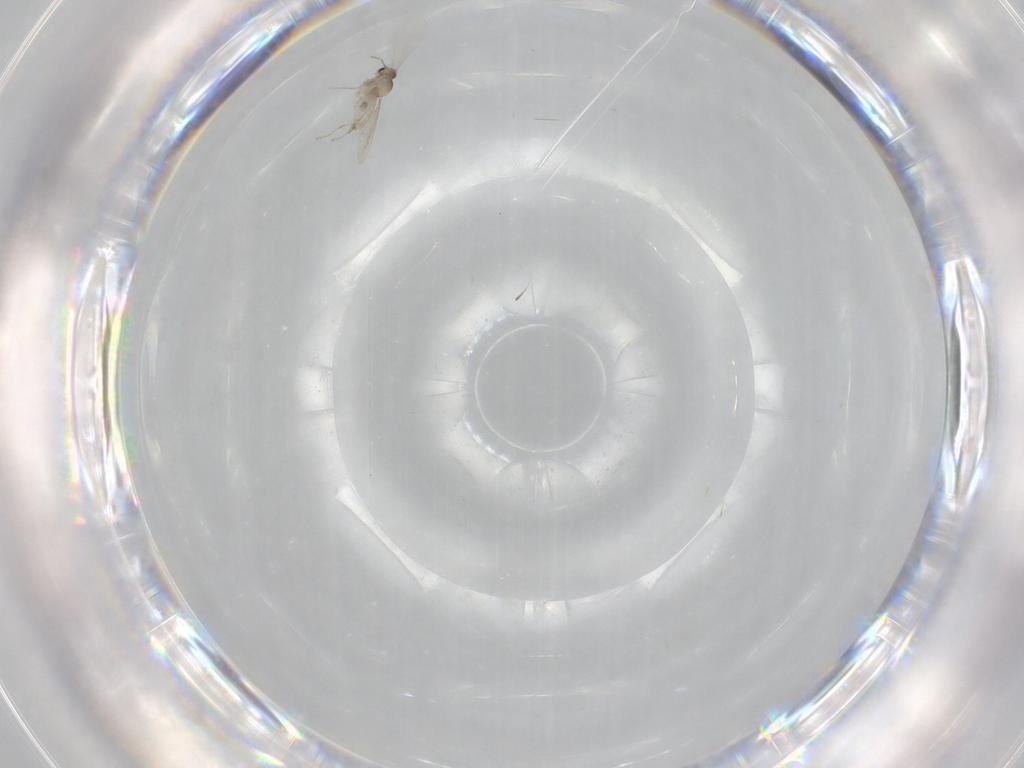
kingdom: Animalia
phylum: Arthropoda
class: Insecta
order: Diptera
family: Cecidomyiidae
